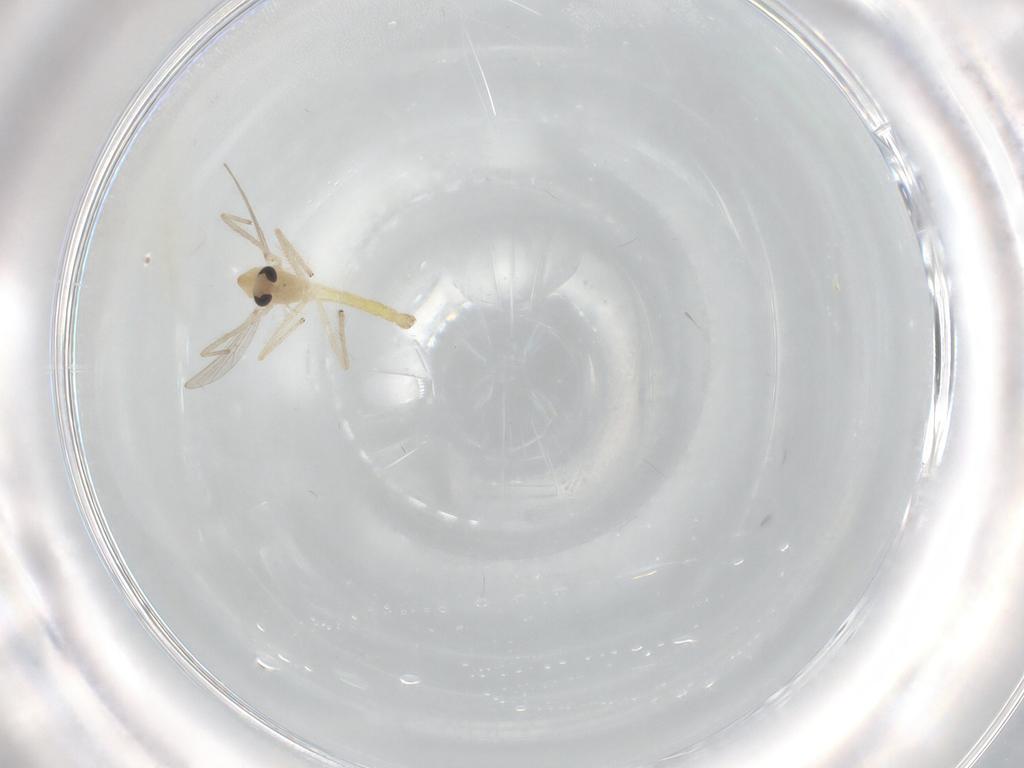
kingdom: Animalia
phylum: Arthropoda
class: Insecta
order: Diptera
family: Chironomidae
